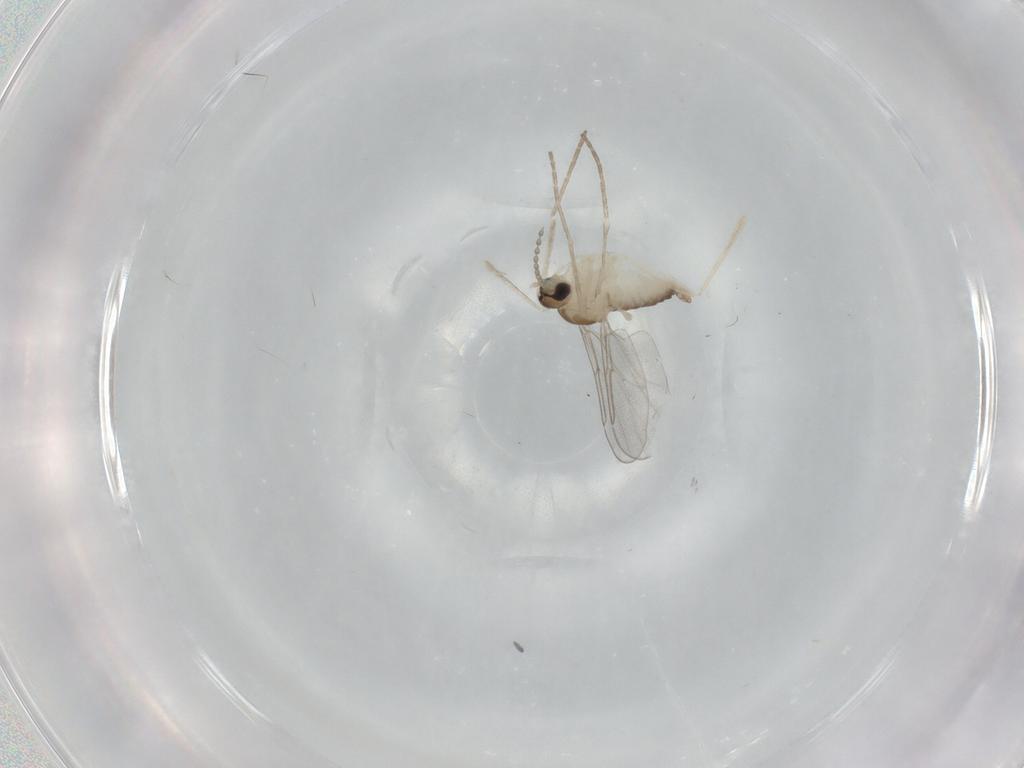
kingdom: Animalia
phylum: Arthropoda
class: Insecta
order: Diptera
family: Cecidomyiidae
